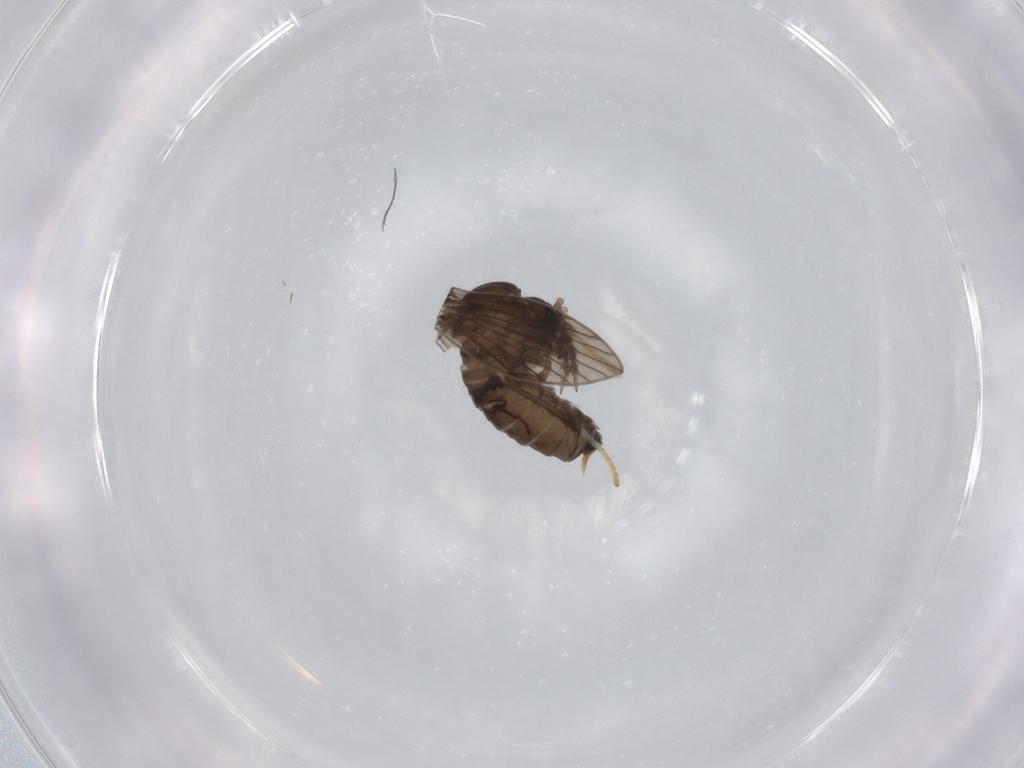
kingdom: Animalia
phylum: Arthropoda
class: Insecta
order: Diptera
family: Psychodidae
